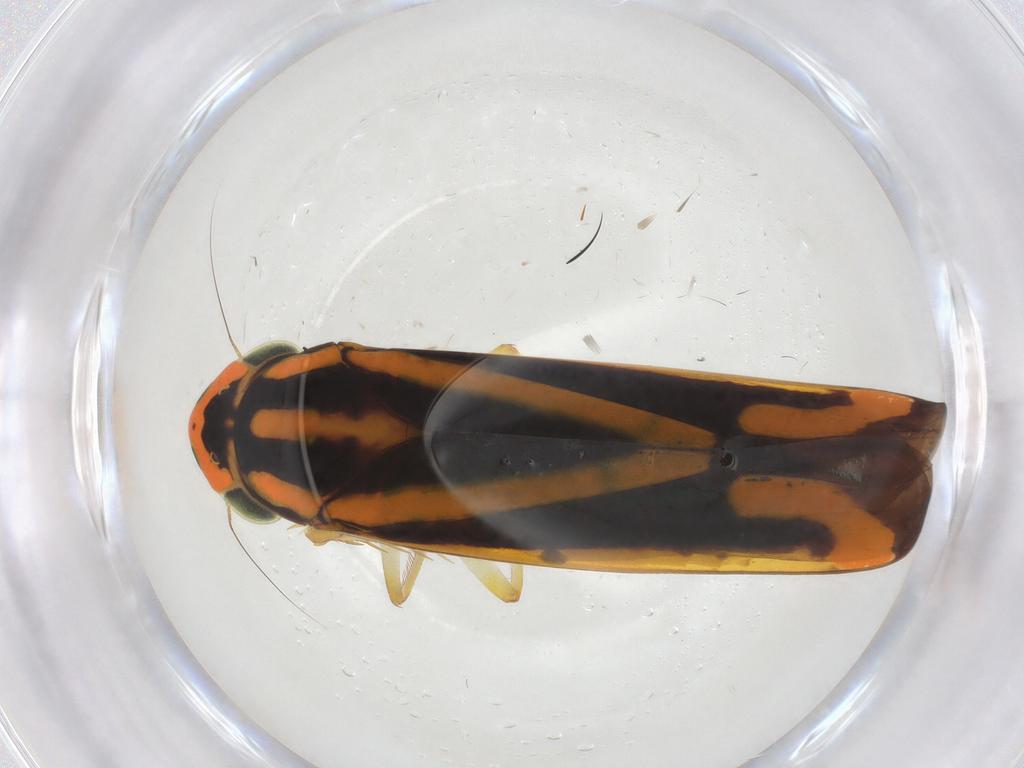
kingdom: Animalia
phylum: Arthropoda
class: Insecta
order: Hemiptera
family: Cicadellidae
